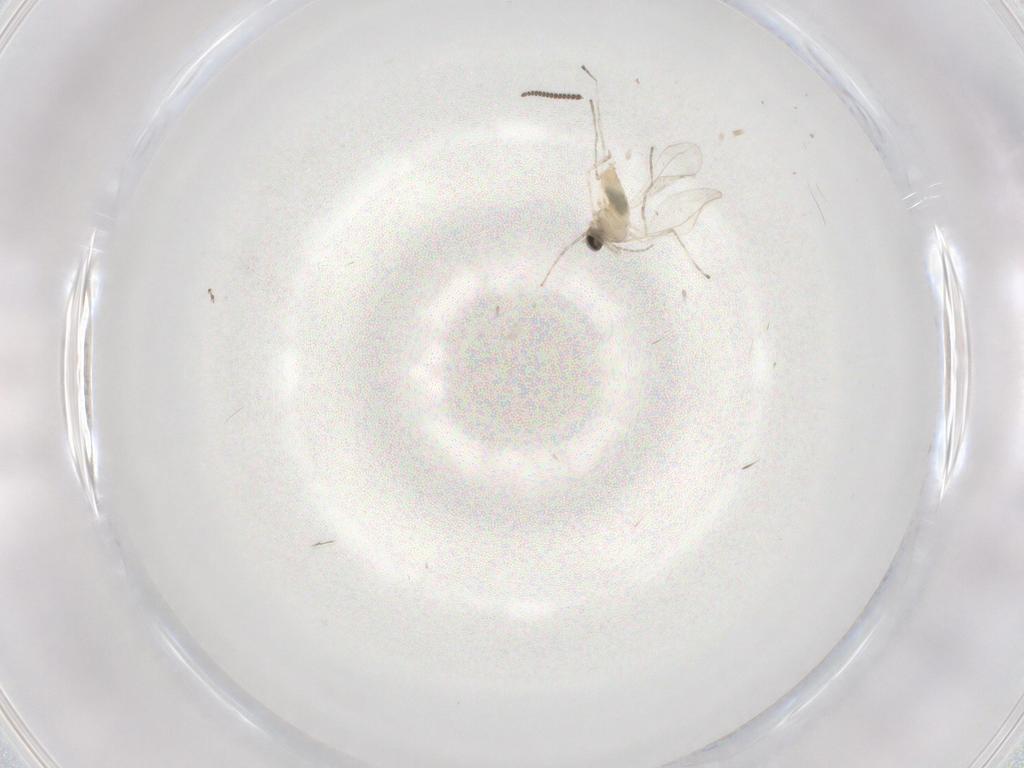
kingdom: Animalia
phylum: Arthropoda
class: Insecta
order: Diptera
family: Cecidomyiidae
